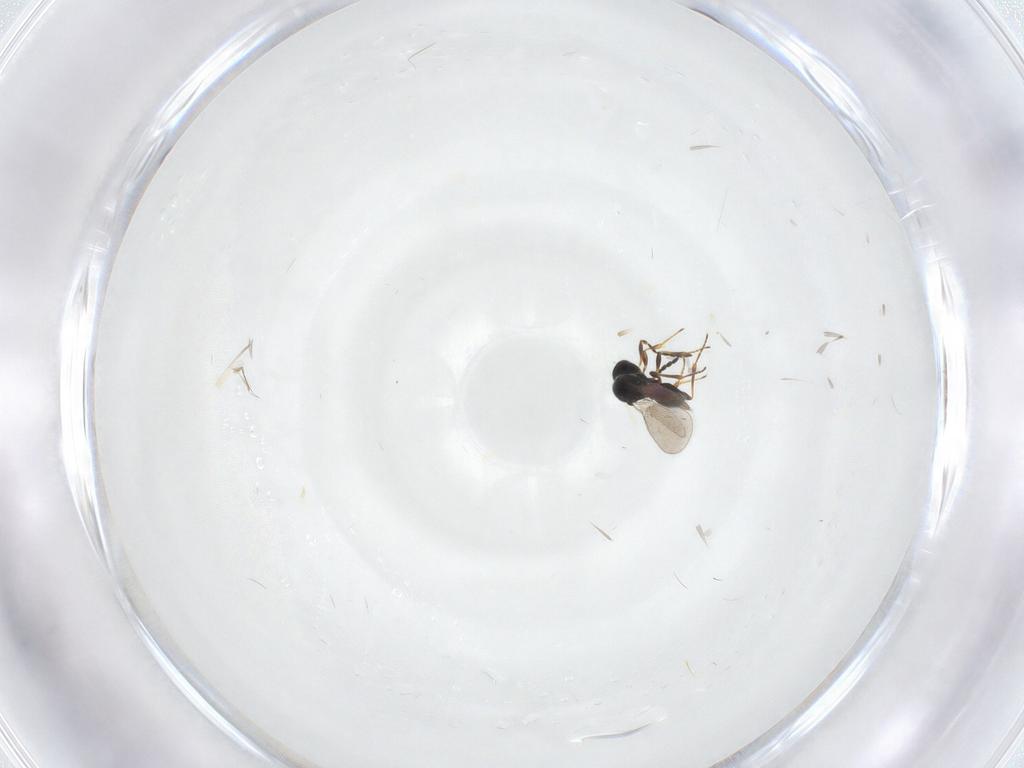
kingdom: Animalia
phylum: Arthropoda
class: Insecta
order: Hymenoptera
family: Platygastridae
